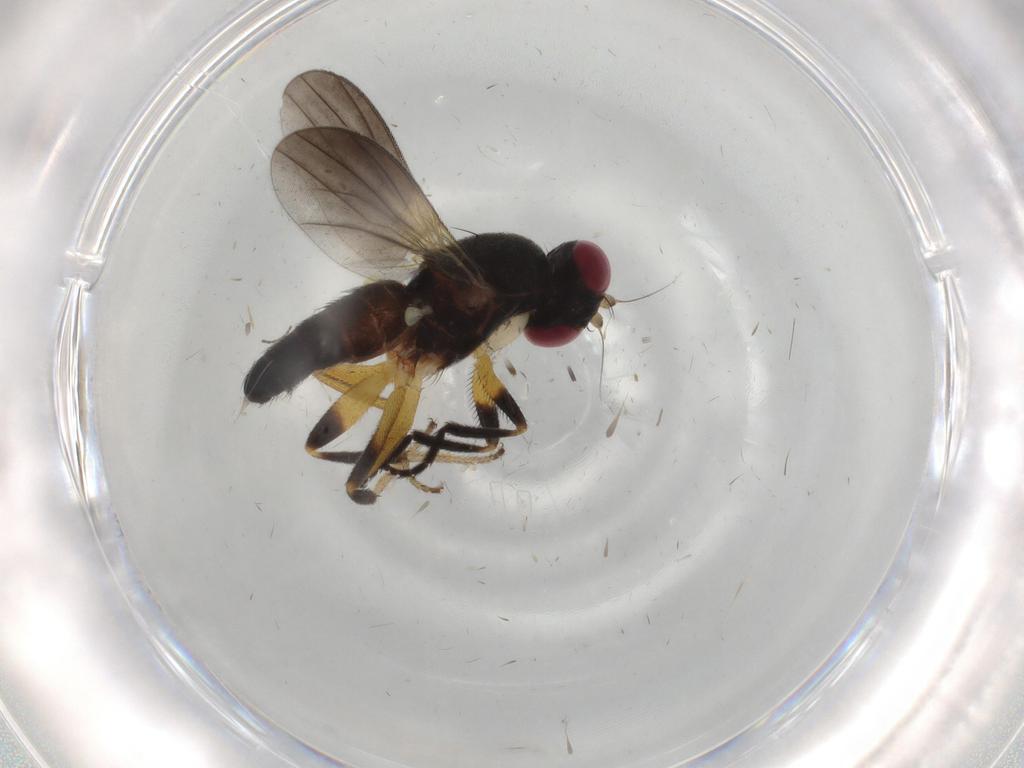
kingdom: Animalia
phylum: Arthropoda
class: Insecta
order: Diptera
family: Clusiidae
